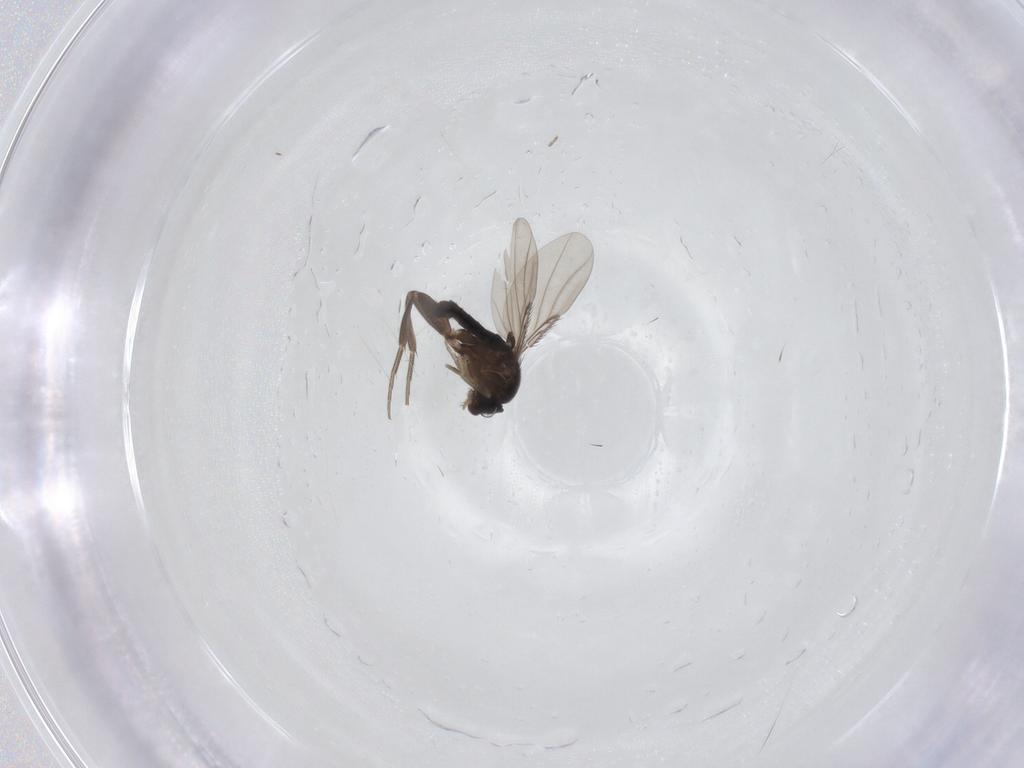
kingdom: Animalia
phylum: Arthropoda
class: Insecta
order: Diptera
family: Phoridae
